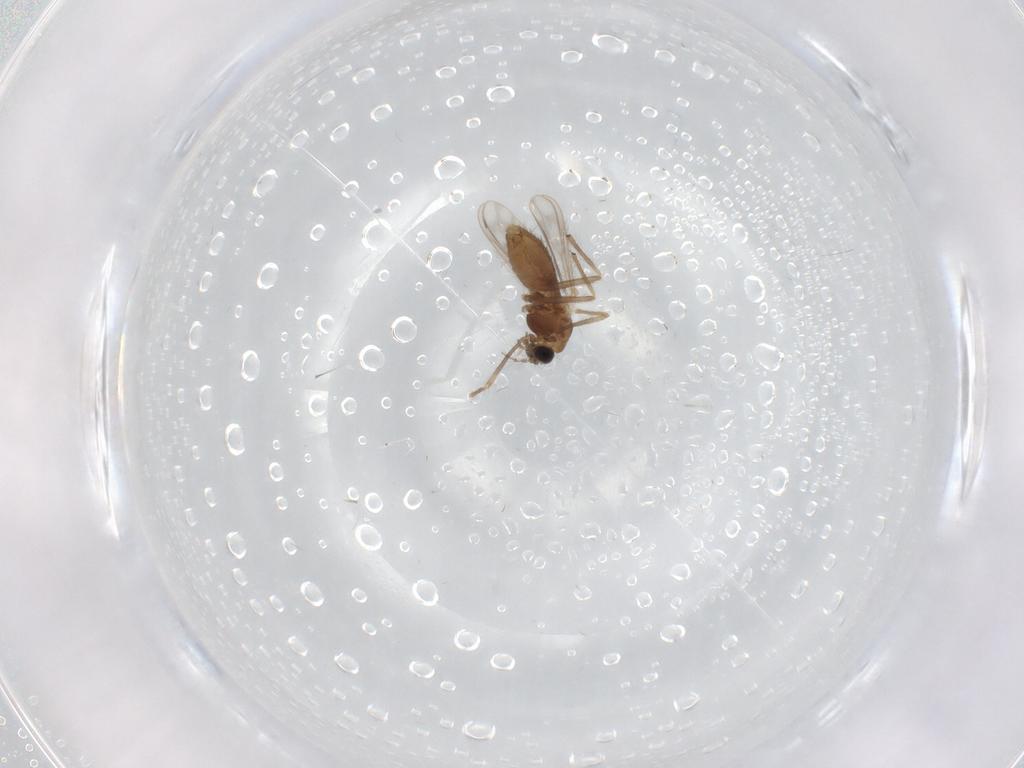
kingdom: Animalia
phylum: Arthropoda
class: Insecta
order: Diptera
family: Chironomidae
